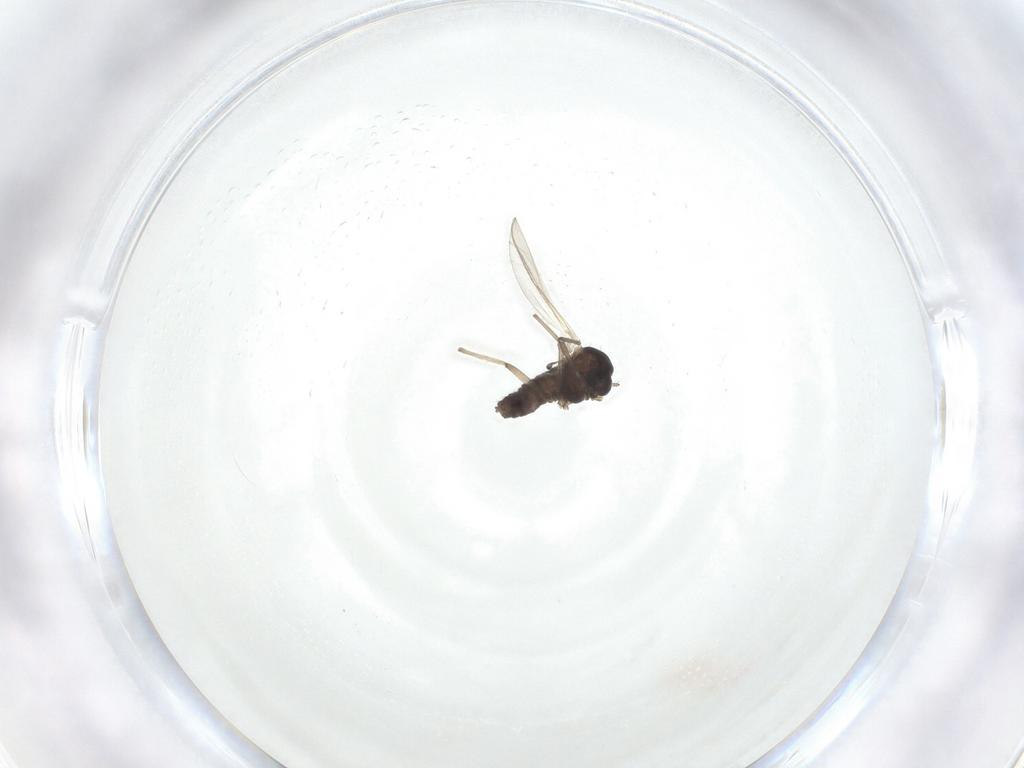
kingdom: Animalia
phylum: Arthropoda
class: Insecta
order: Diptera
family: Chironomidae
